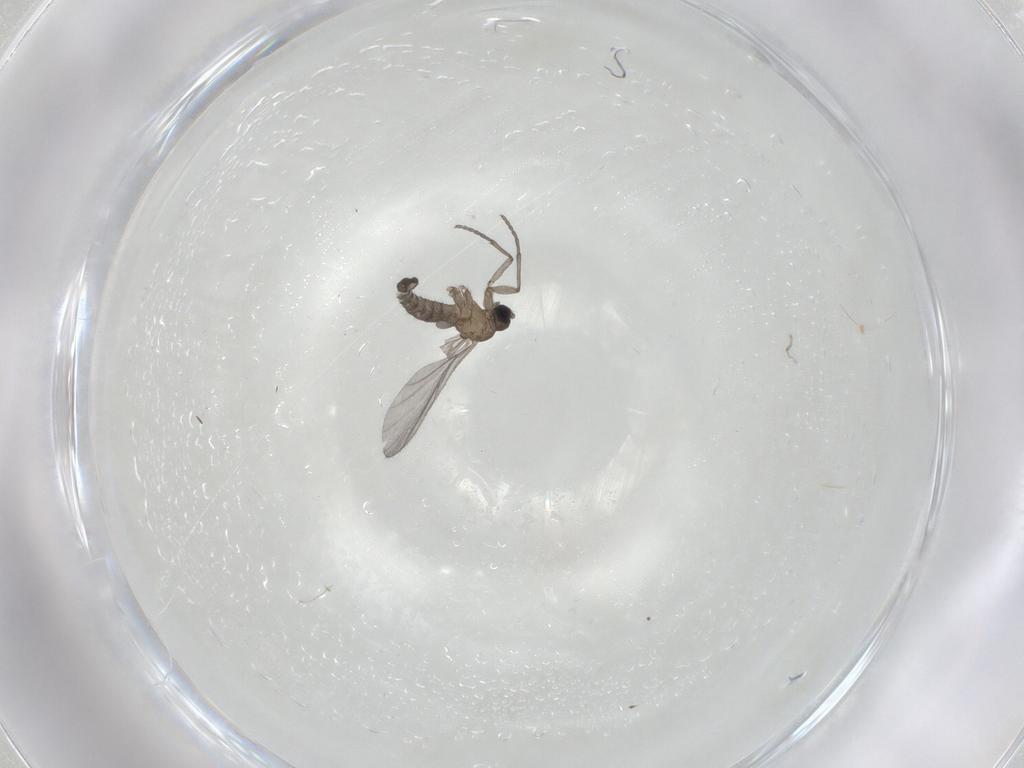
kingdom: Animalia
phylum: Arthropoda
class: Insecta
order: Diptera
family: Sciaridae
